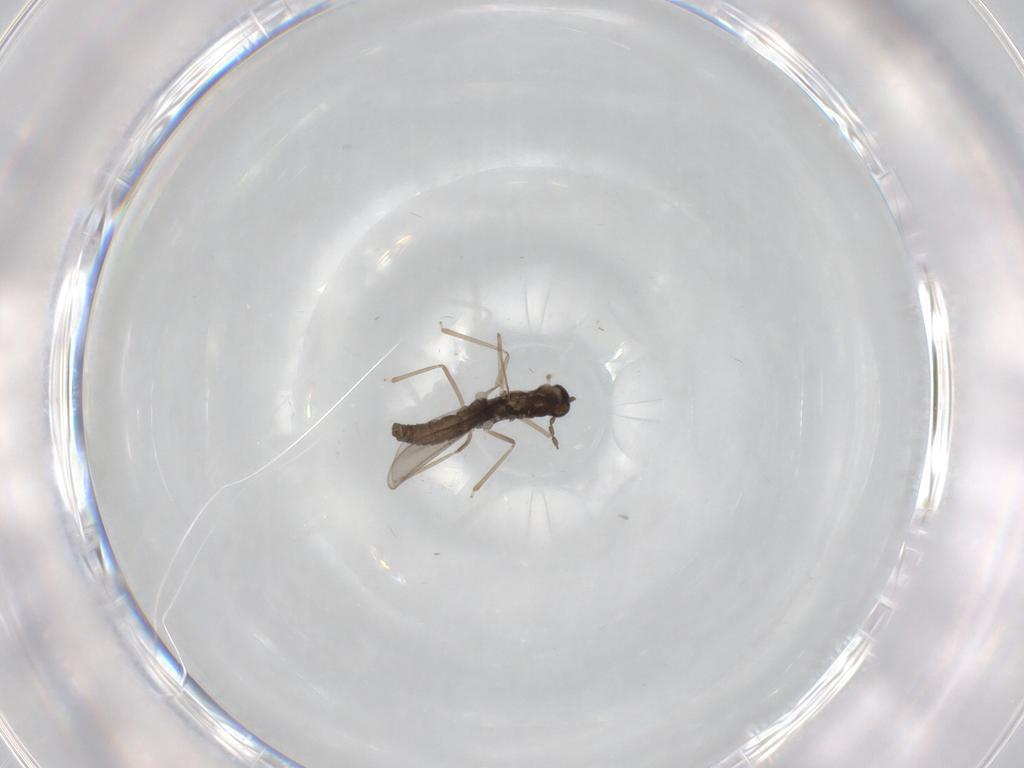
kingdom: Animalia
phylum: Arthropoda
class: Insecta
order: Diptera
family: Cecidomyiidae
